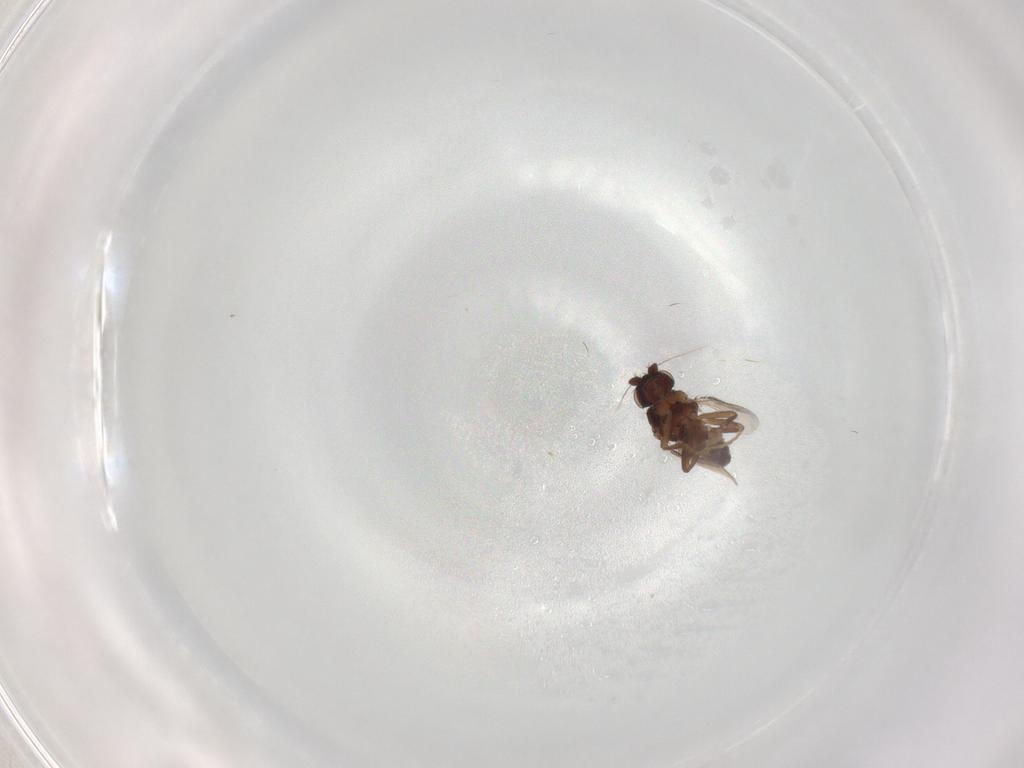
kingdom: Animalia
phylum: Arthropoda
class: Insecta
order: Diptera
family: Sphaeroceridae
